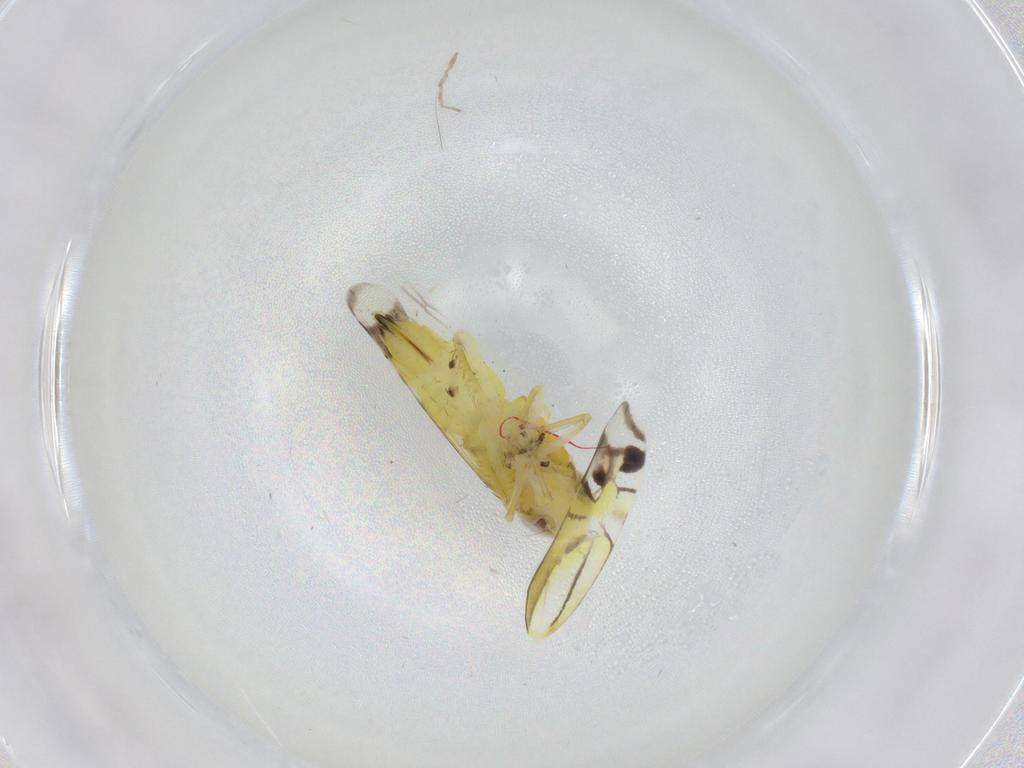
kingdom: Animalia
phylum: Arthropoda
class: Insecta
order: Hemiptera
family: Cicadellidae
